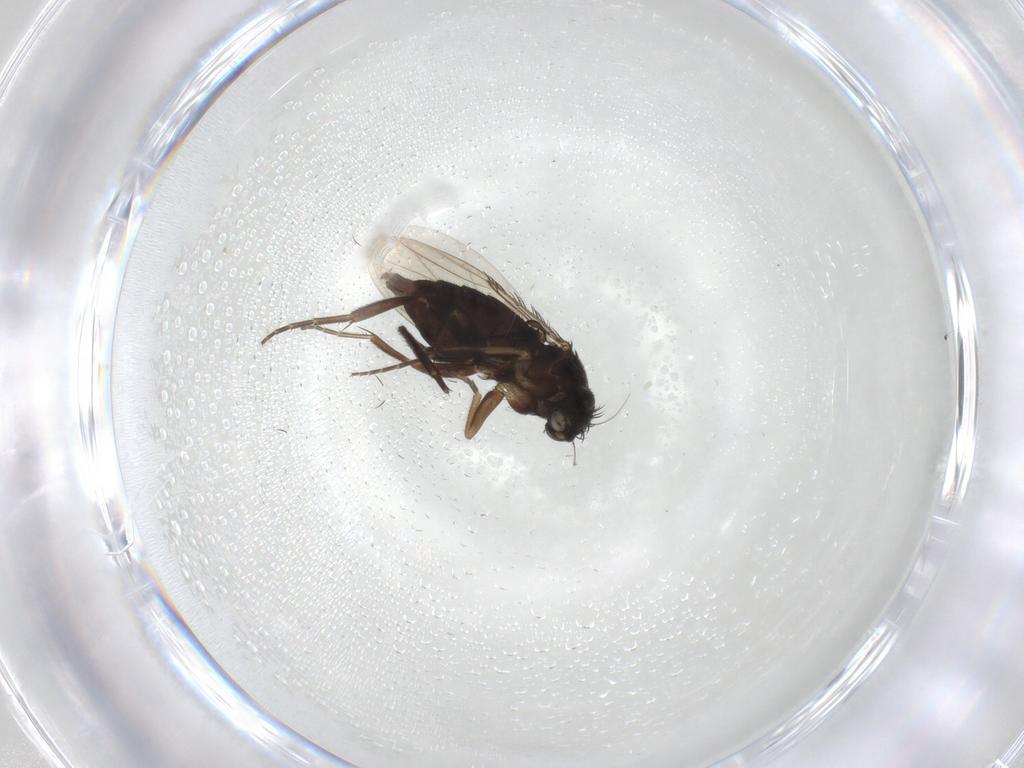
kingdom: Animalia
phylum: Arthropoda
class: Insecta
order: Diptera
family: Phoridae
